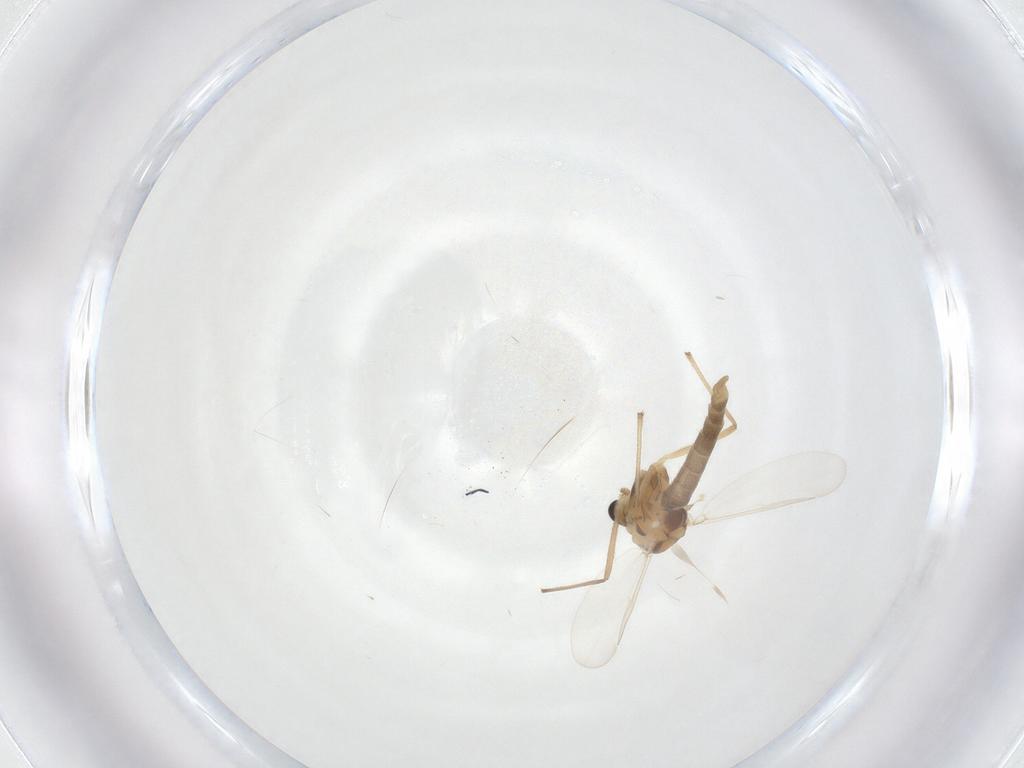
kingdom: Animalia
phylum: Arthropoda
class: Insecta
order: Diptera
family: Chironomidae
